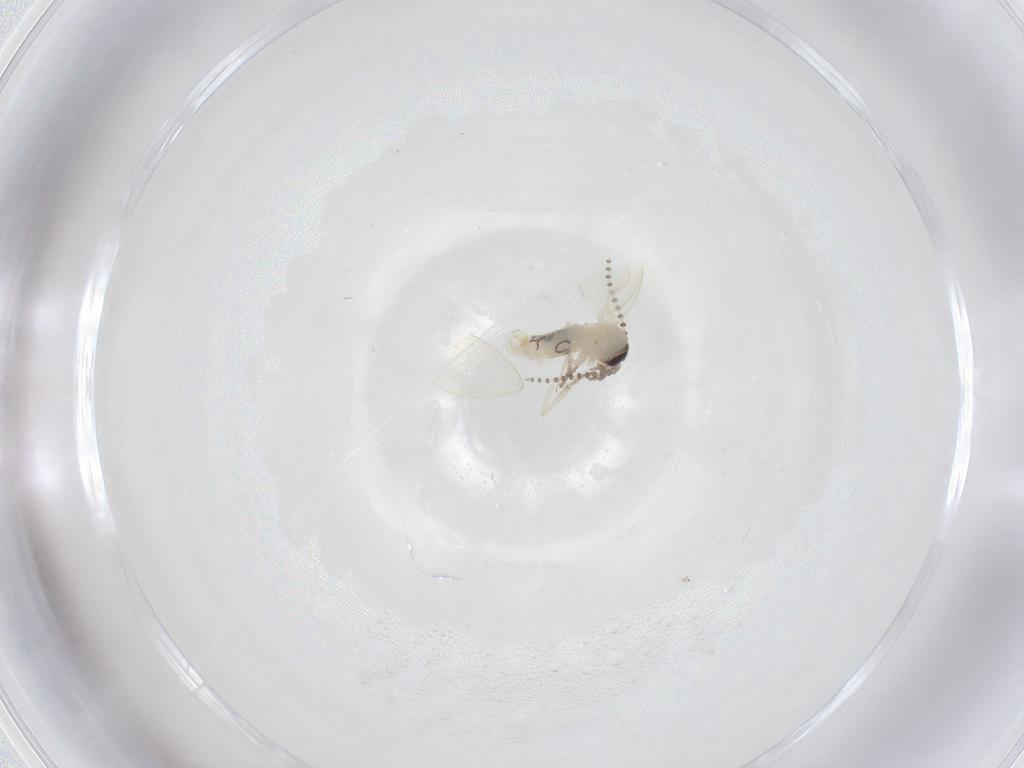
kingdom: Animalia
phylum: Arthropoda
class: Insecta
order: Diptera
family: Psychodidae
